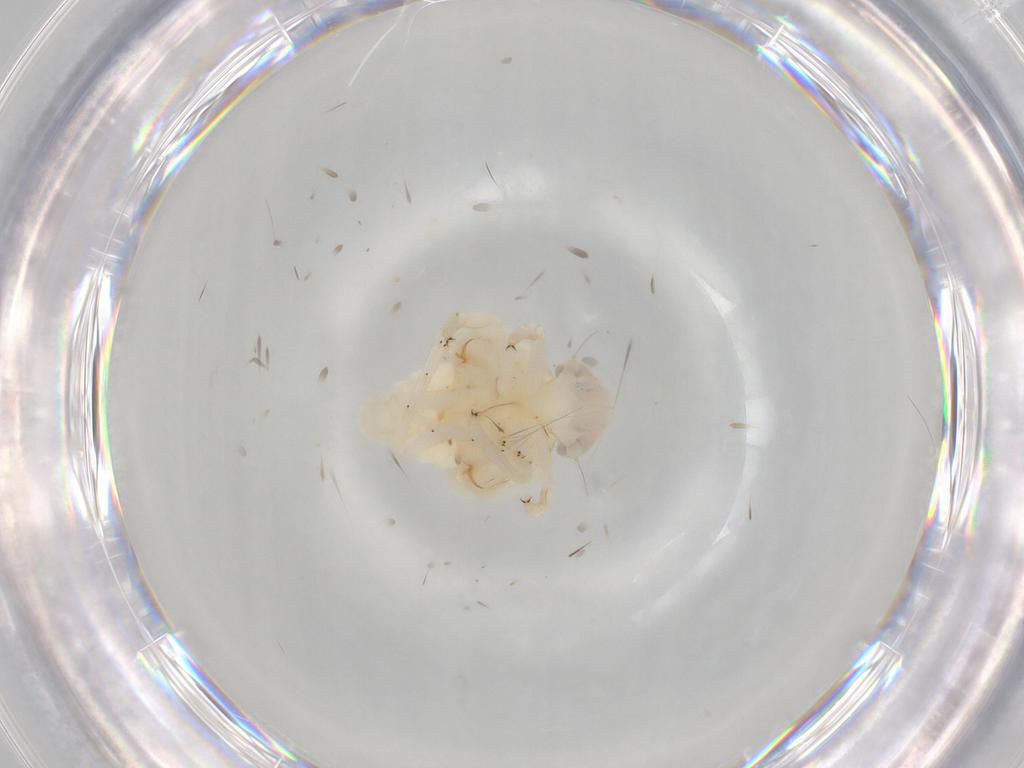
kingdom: Animalia
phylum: Arthropoda
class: Insecta
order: Hemiptera
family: Nogodinidae
